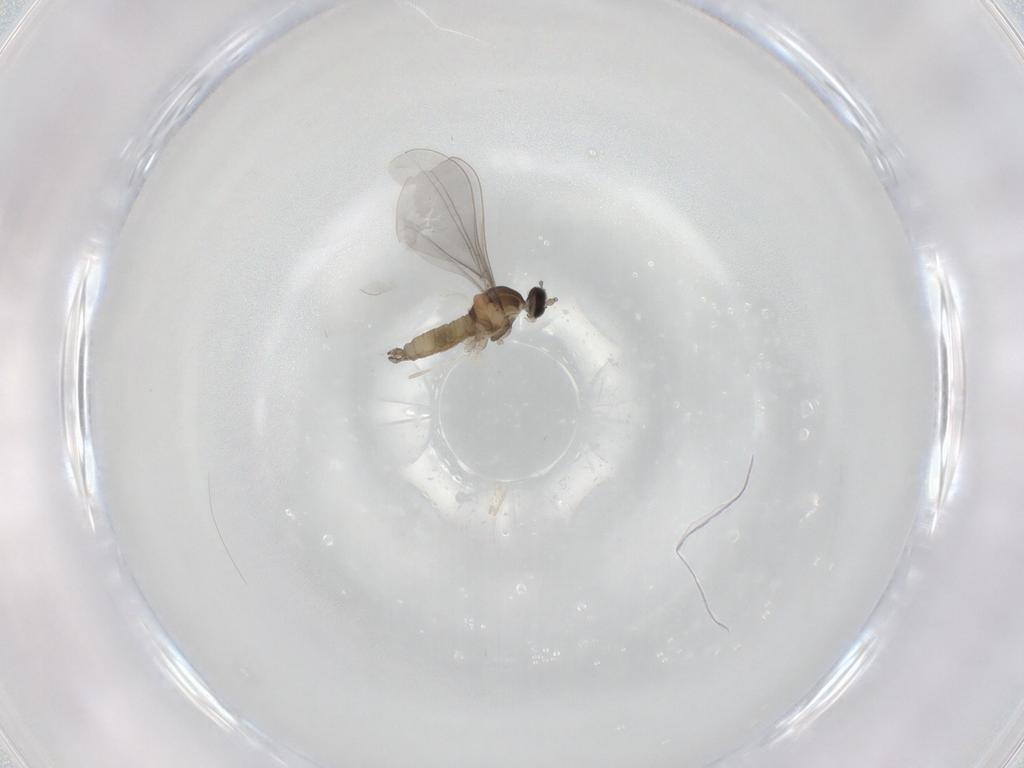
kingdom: Animalia
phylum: Arthropoda
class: Insecta
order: Diptera
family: Cecidomyiidae
